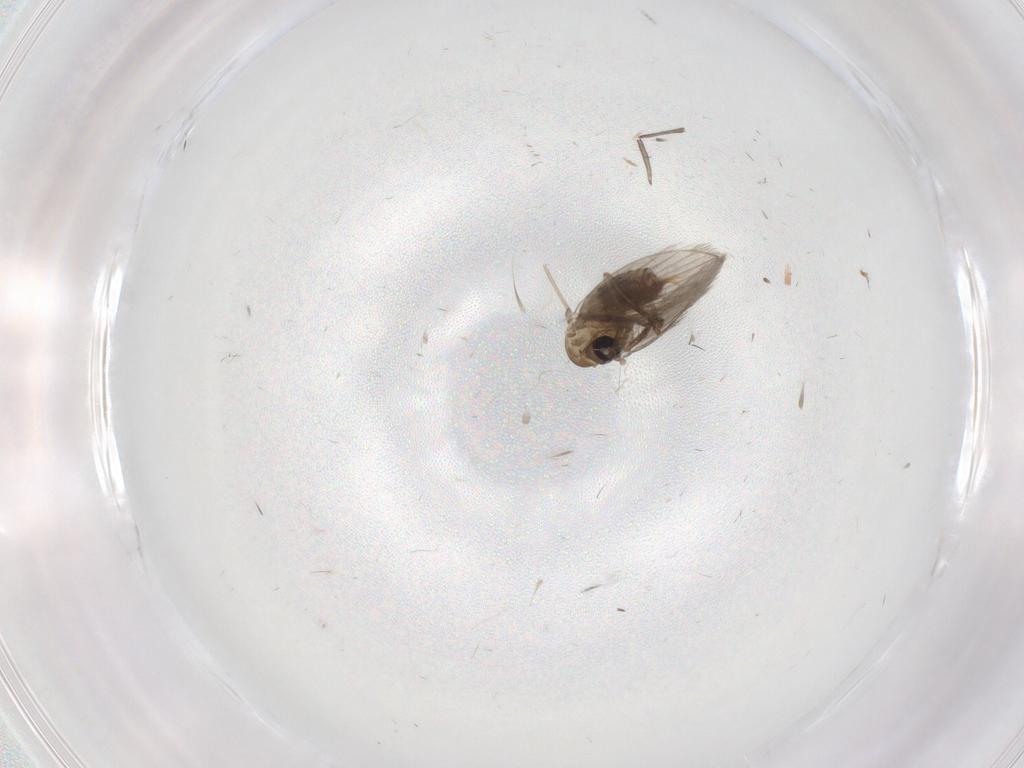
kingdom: Animalia
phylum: Arthropoda
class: Insecta
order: Diptera
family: Cecidomyiidae
